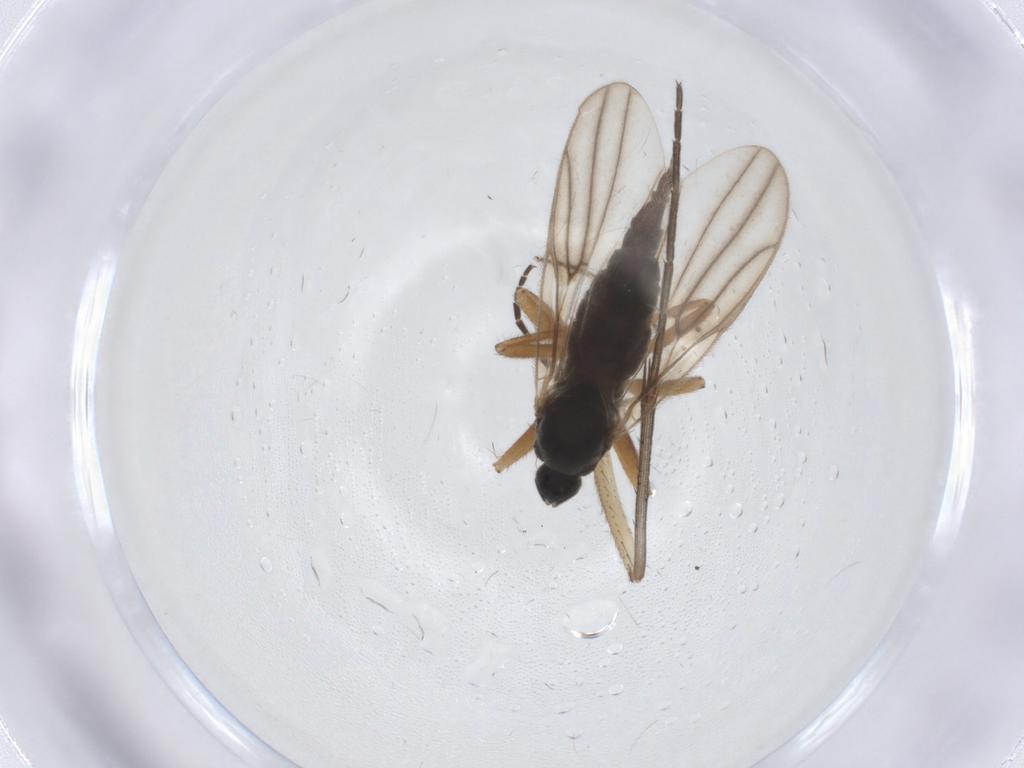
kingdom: Animalia
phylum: Arthropoda
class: Insecta
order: Diptera
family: Hybotidae
